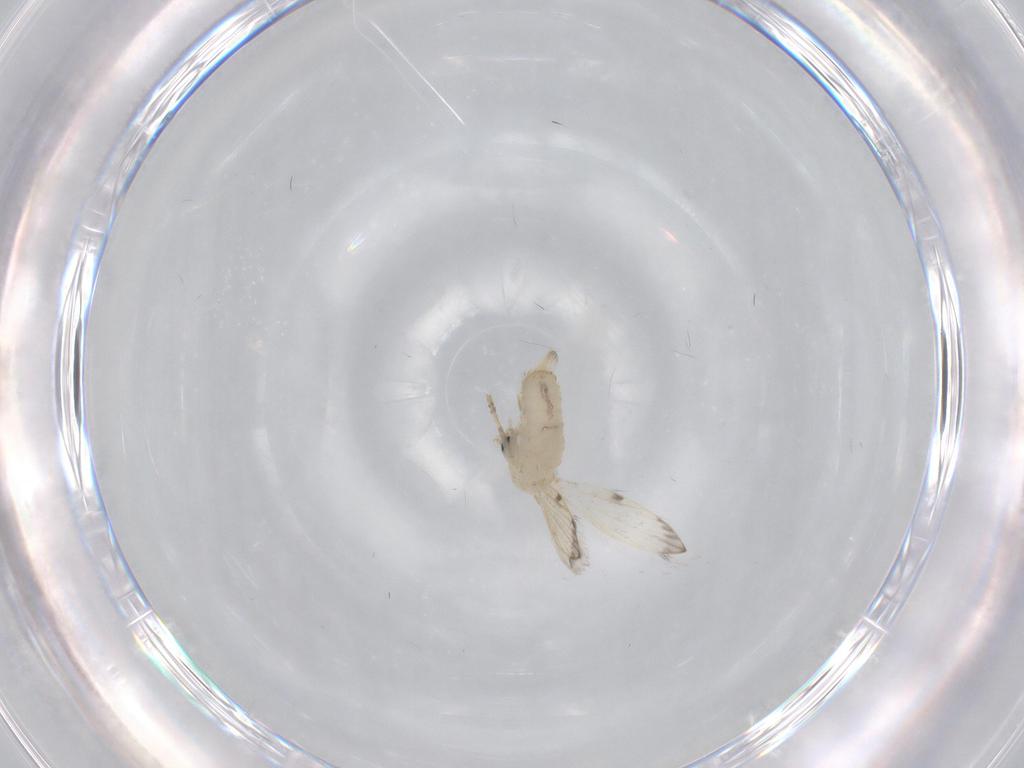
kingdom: Animalia
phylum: Arthropoda
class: Insecta
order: Diptera
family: Psychodidae
